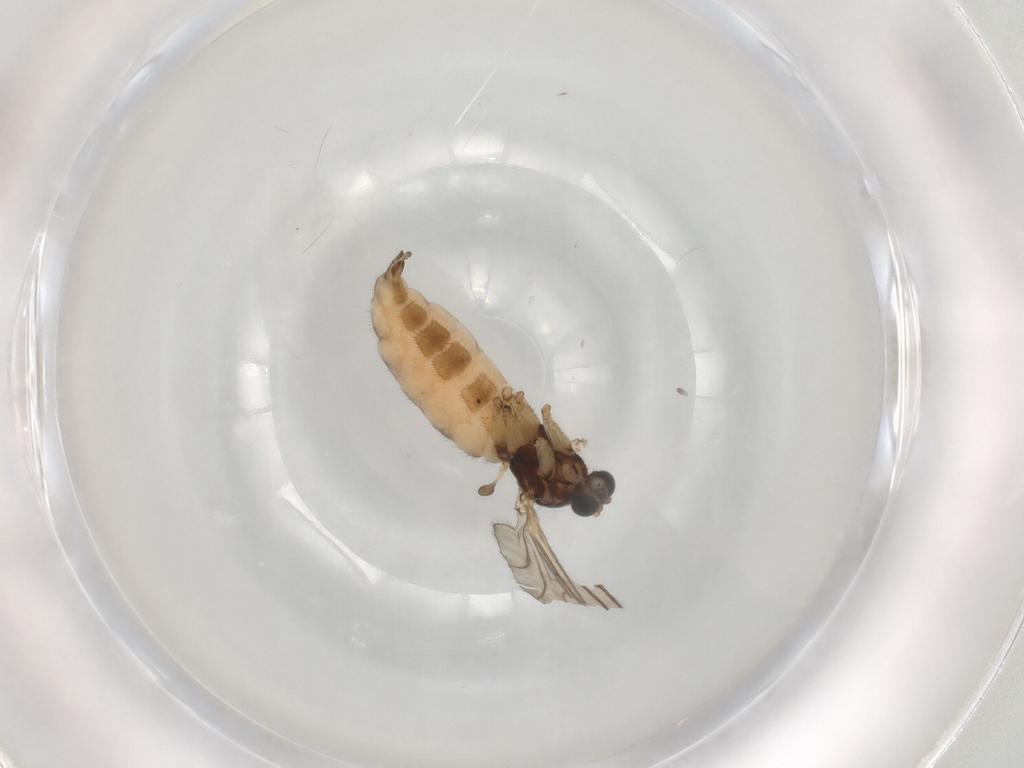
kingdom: Animalia
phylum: Arthropoda
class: Insecta
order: Diptera
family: Sciaridae
